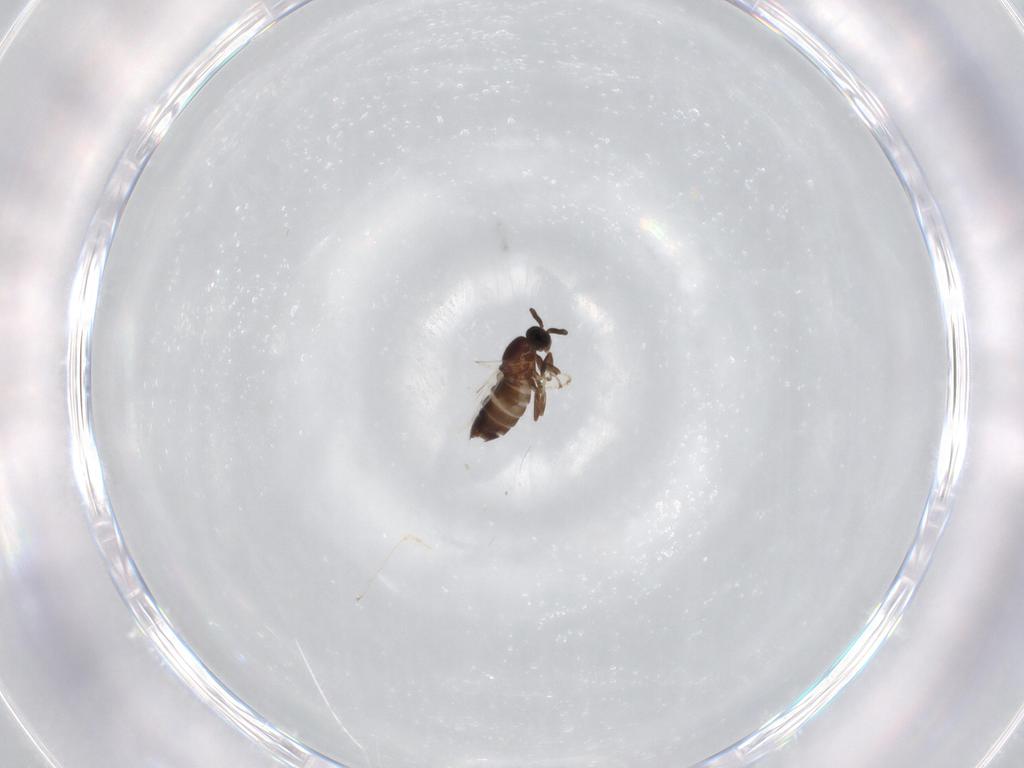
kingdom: Animalia
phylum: Arthropoda
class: Insecta
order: Diptera
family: Scatopsidae
